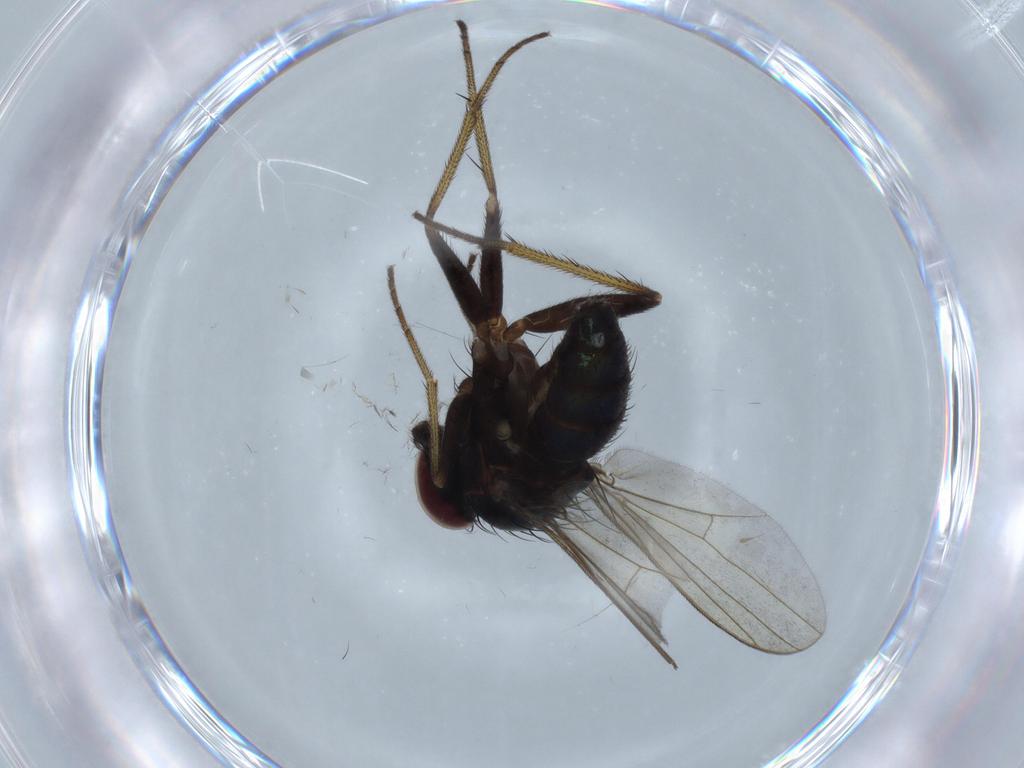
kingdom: Animalia
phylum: Arthropoda
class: Insecta
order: Diptera
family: Dolichopodidae
